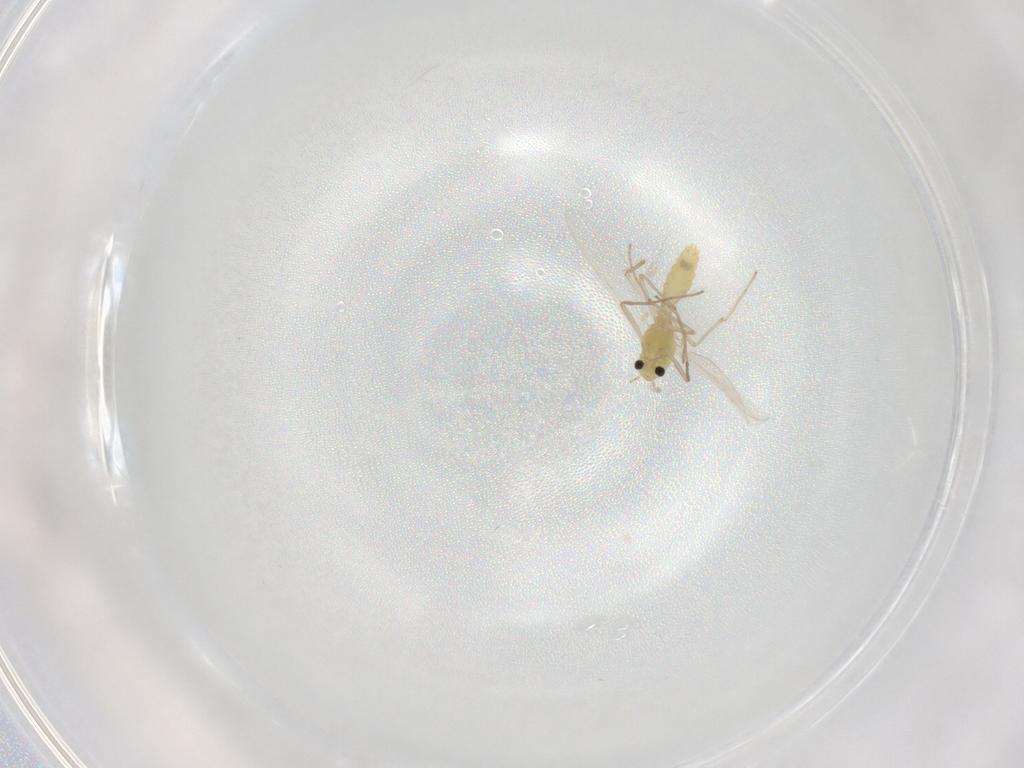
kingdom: Animalia
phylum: Arthropoda
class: Insecta
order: Diptera
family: Chironomidae
